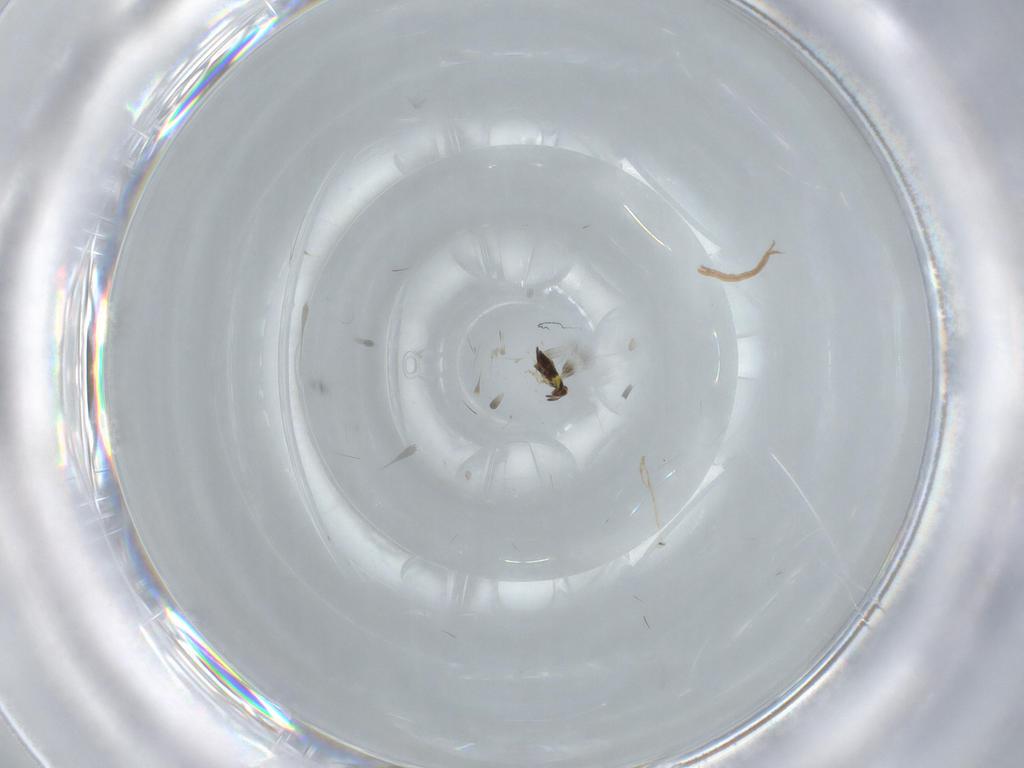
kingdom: Animalia
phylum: Arthropoda
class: Insecta
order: Hymenoptera
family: Signiphoridae
